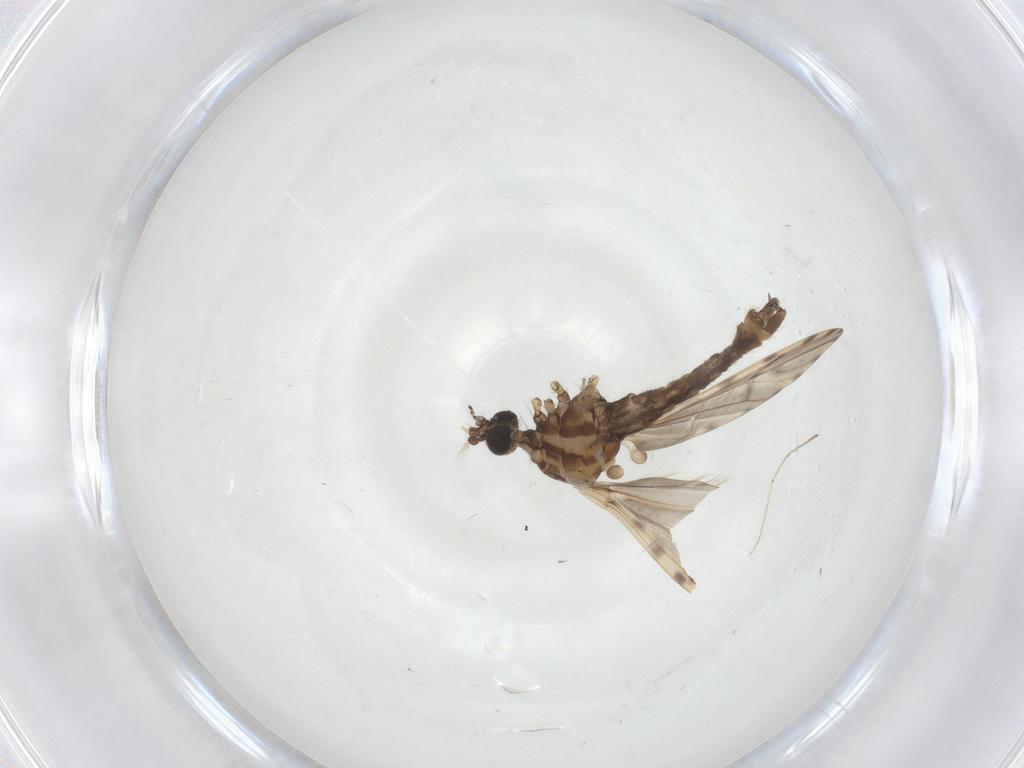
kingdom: Animalia
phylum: Arthropoda
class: Insecta
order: Diptera
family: Limoniidae
